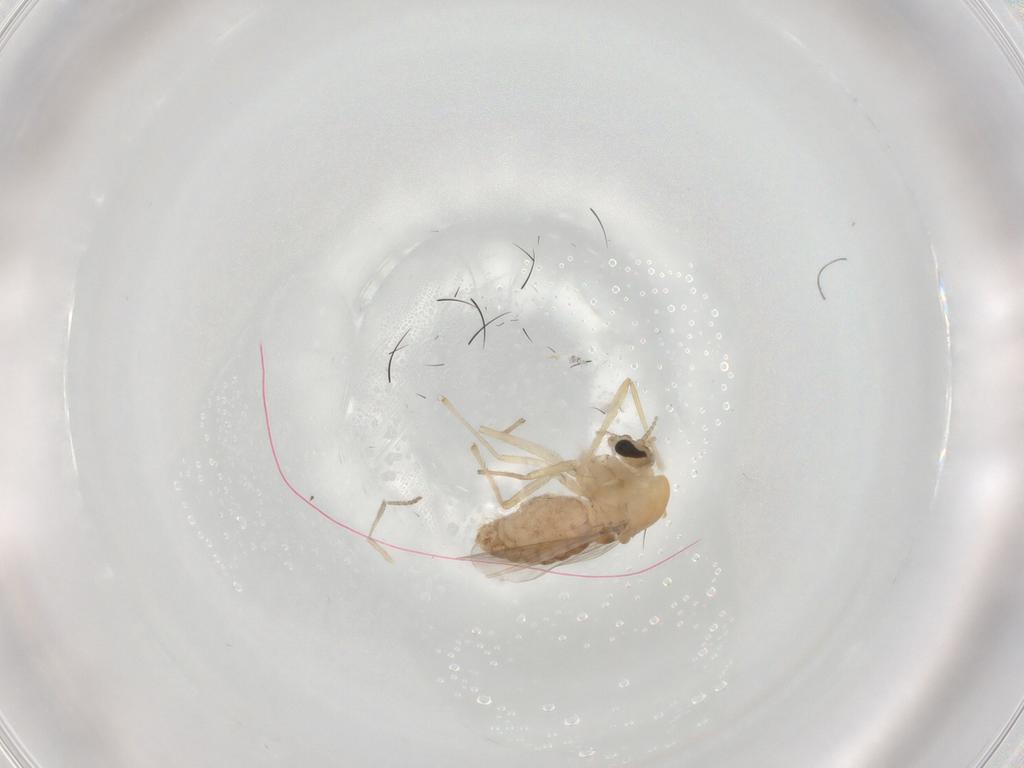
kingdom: Animalia
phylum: Arthropoda
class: Insecta
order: Diptera
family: Chironomidae
